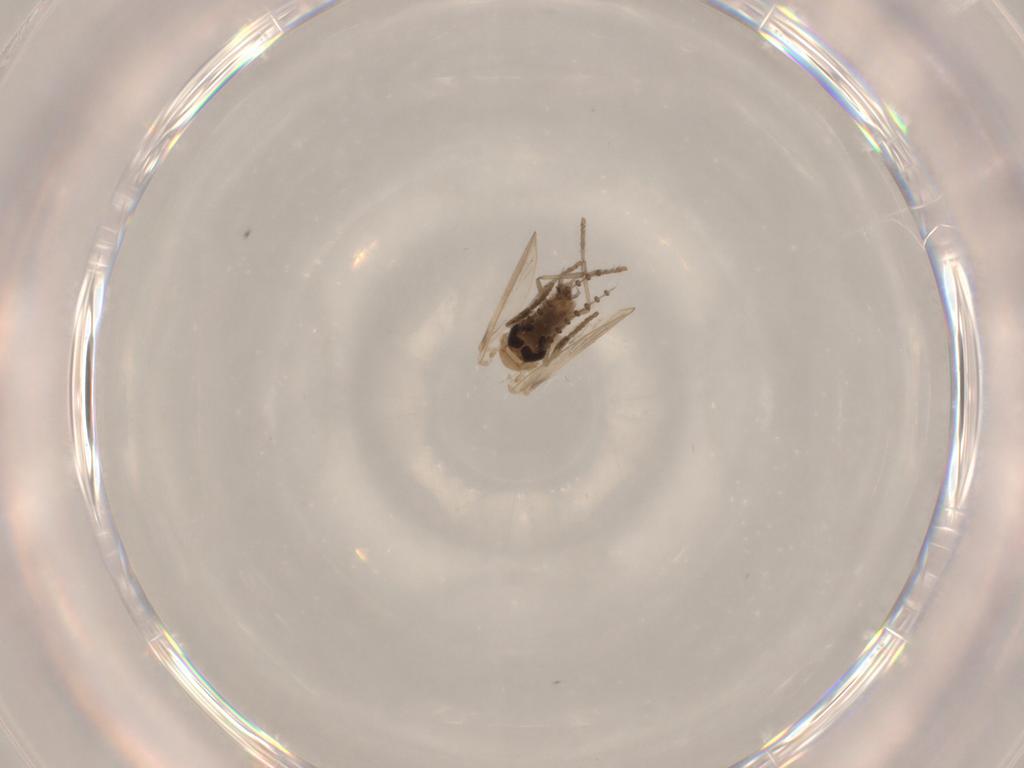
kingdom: Animalia
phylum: Arthropoda
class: Insecta
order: Diptera
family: Psychodidae
